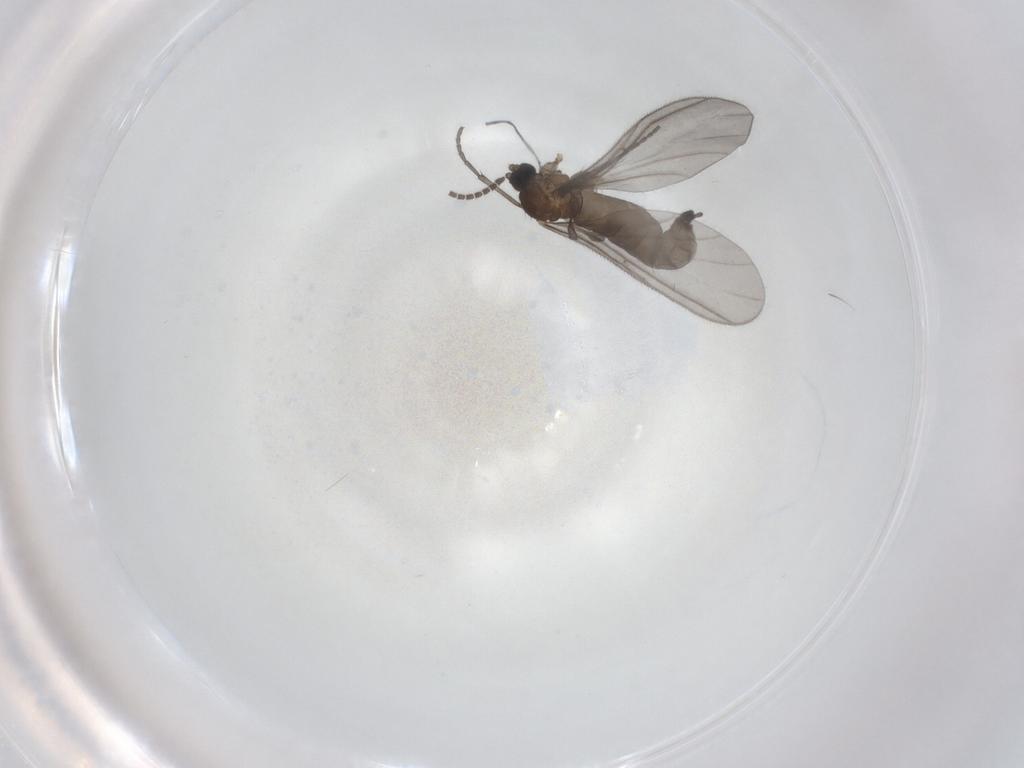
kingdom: Animalia
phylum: Arthropoda
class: Insecta
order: Diptera
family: Sciaridae
